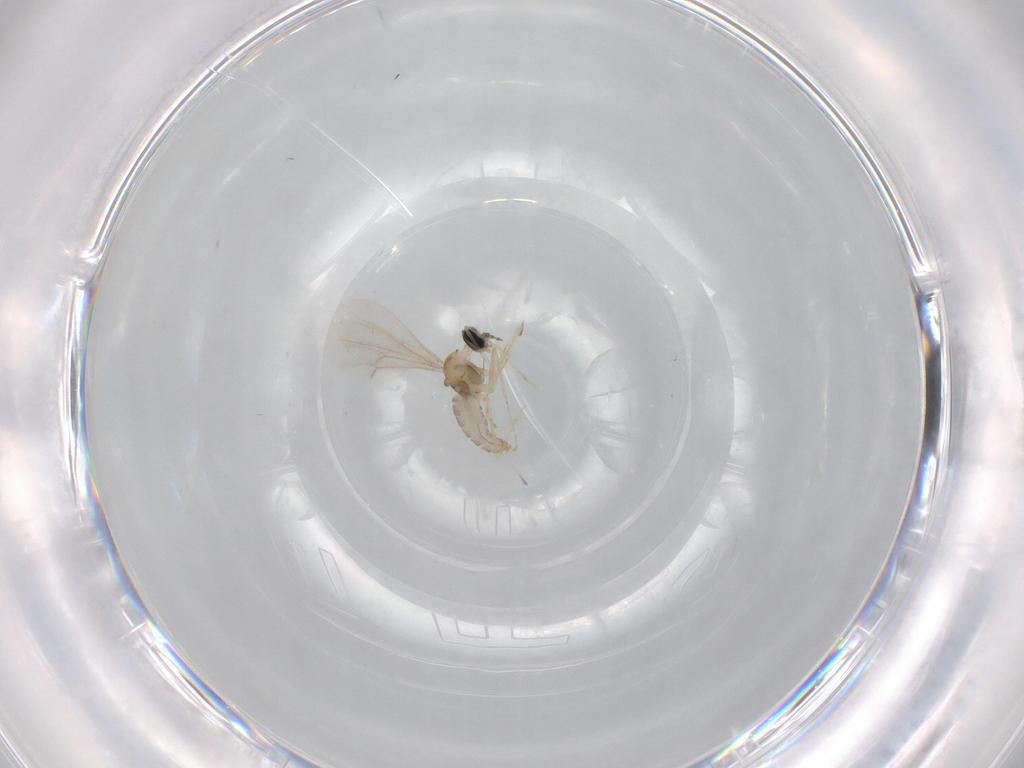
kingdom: Animalia
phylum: Arthropoda
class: Insecta
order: Diptera
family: Cecidomyiidae
